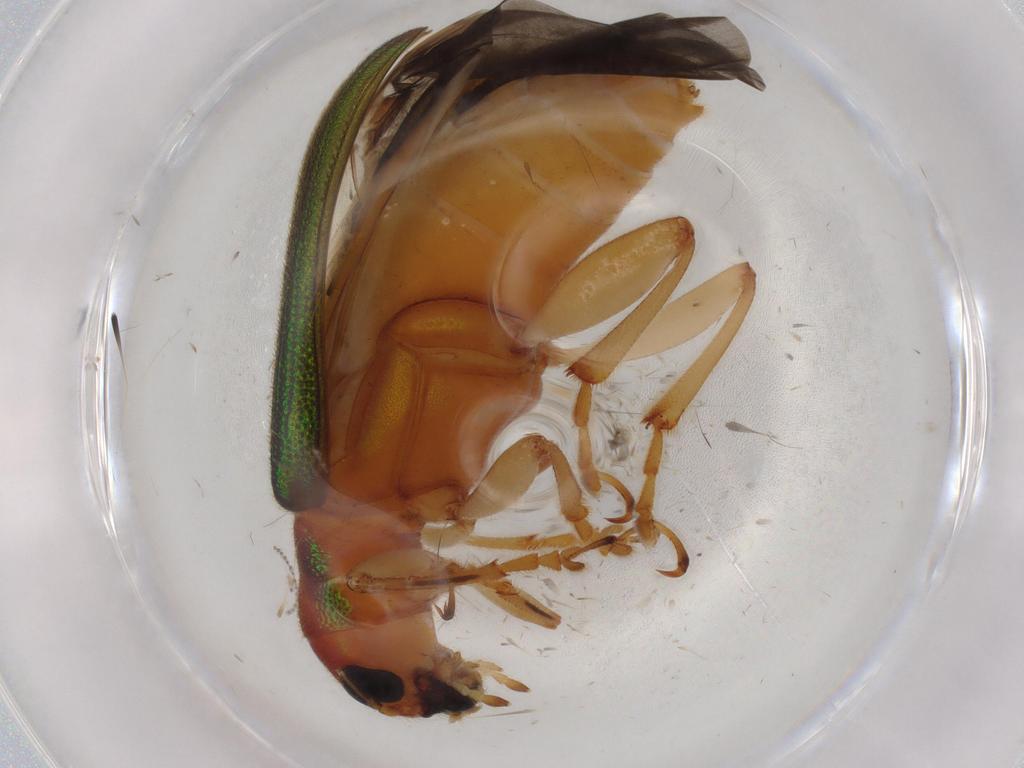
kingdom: Animalia
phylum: Arthropoda
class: Insecta
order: Coleoptera
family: Chrysomelidae
